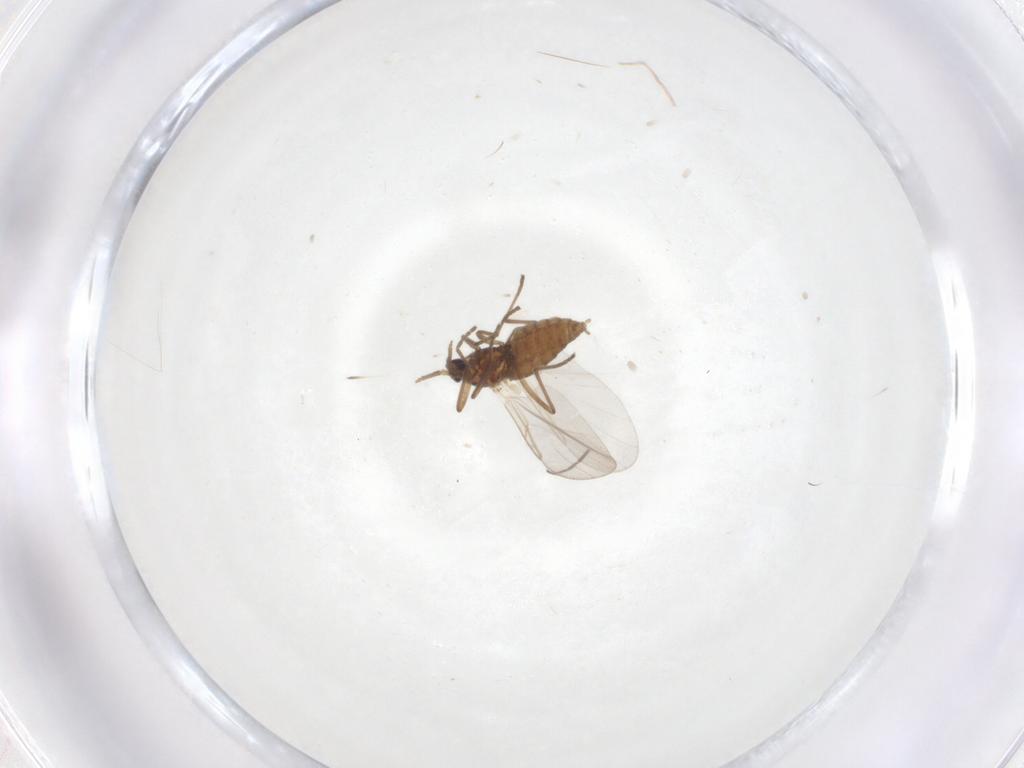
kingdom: Animalia
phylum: Arthropoda
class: Insecta
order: Diptera
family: Cecidomyiidae
